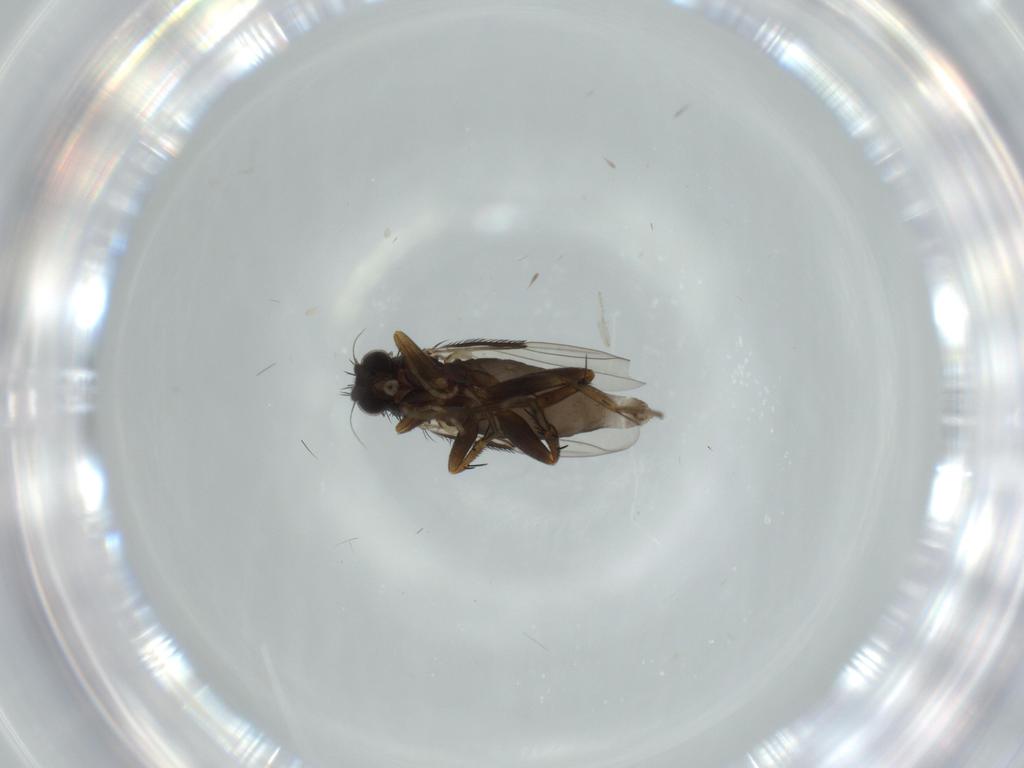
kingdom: Animalia
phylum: Arthropoda
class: Insecta
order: Diptera
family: Phoridae
